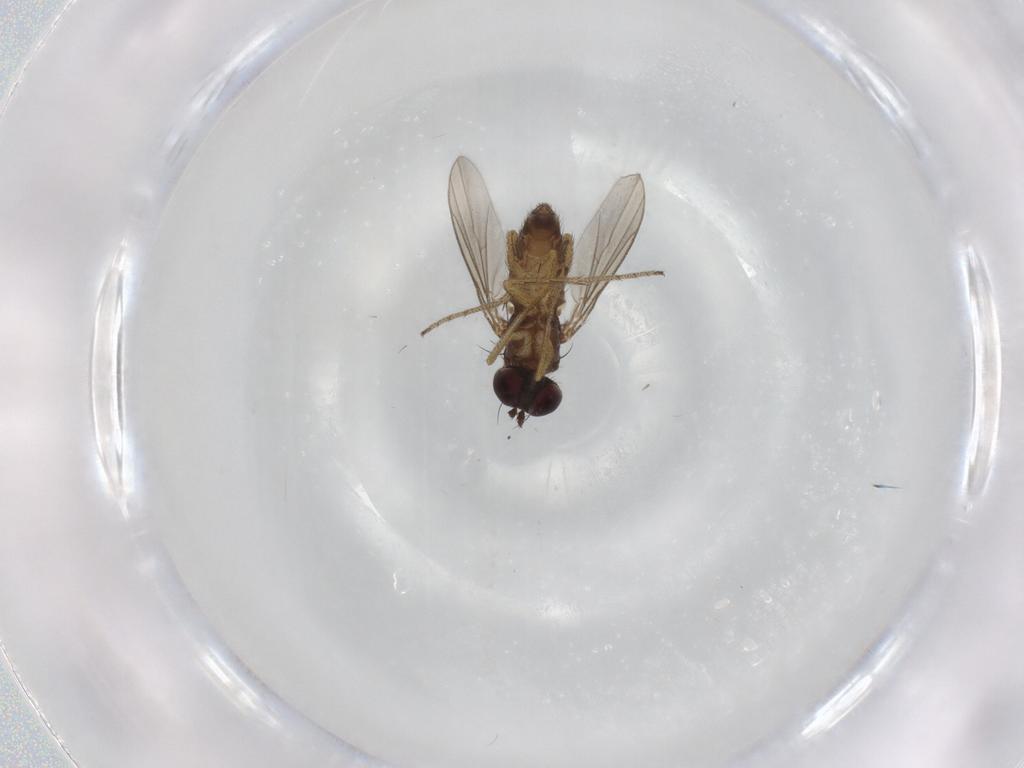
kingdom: Animalia
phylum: Arthropoda
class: Insecta
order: Diptera
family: Dolichopodidae
